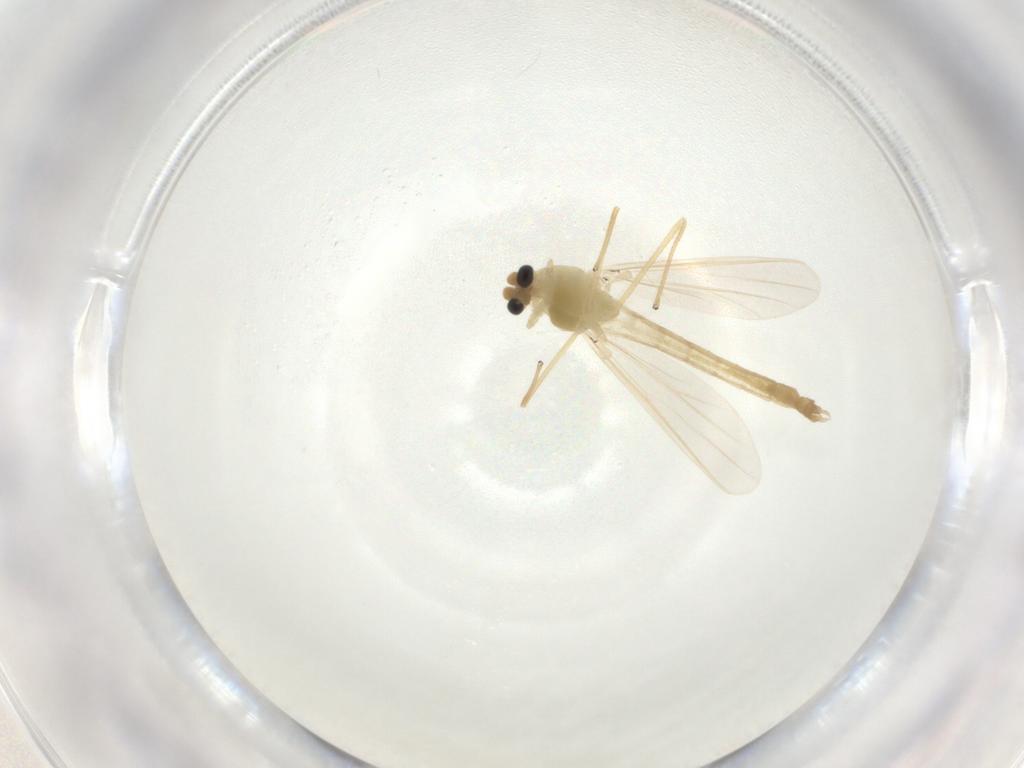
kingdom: Animalia
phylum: Arthropoda
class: Insecta
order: Diptera
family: Chironomidae
